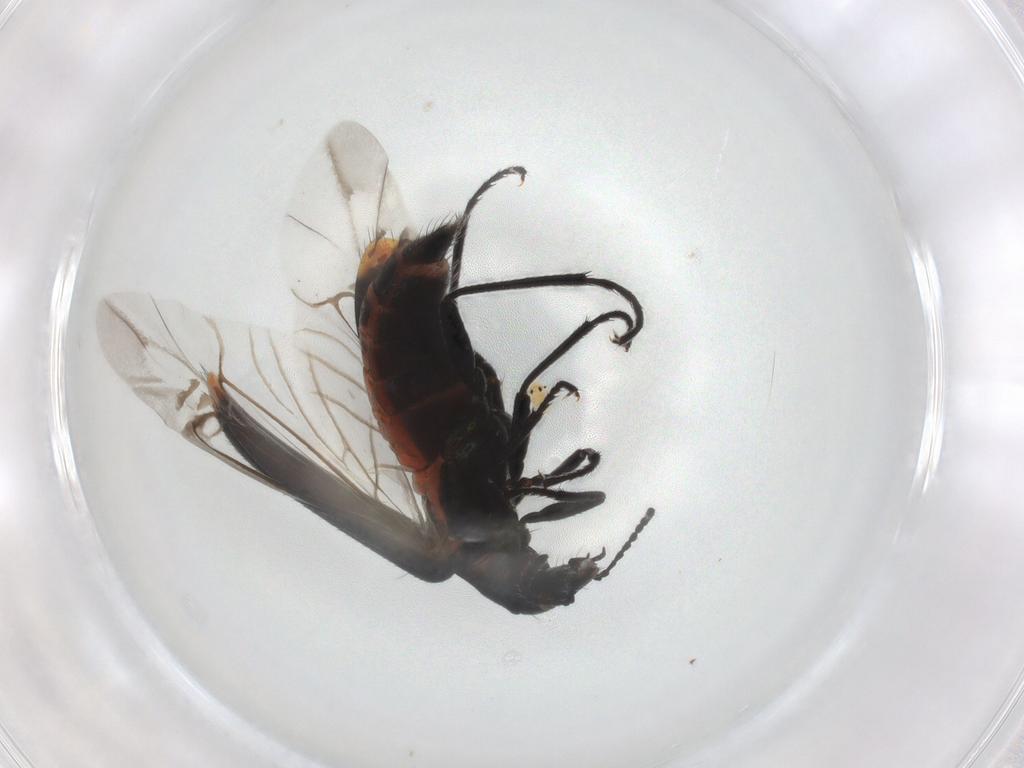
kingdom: Animalia
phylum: Arthropoda
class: Insecta
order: Coleoptera
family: Melyridae
